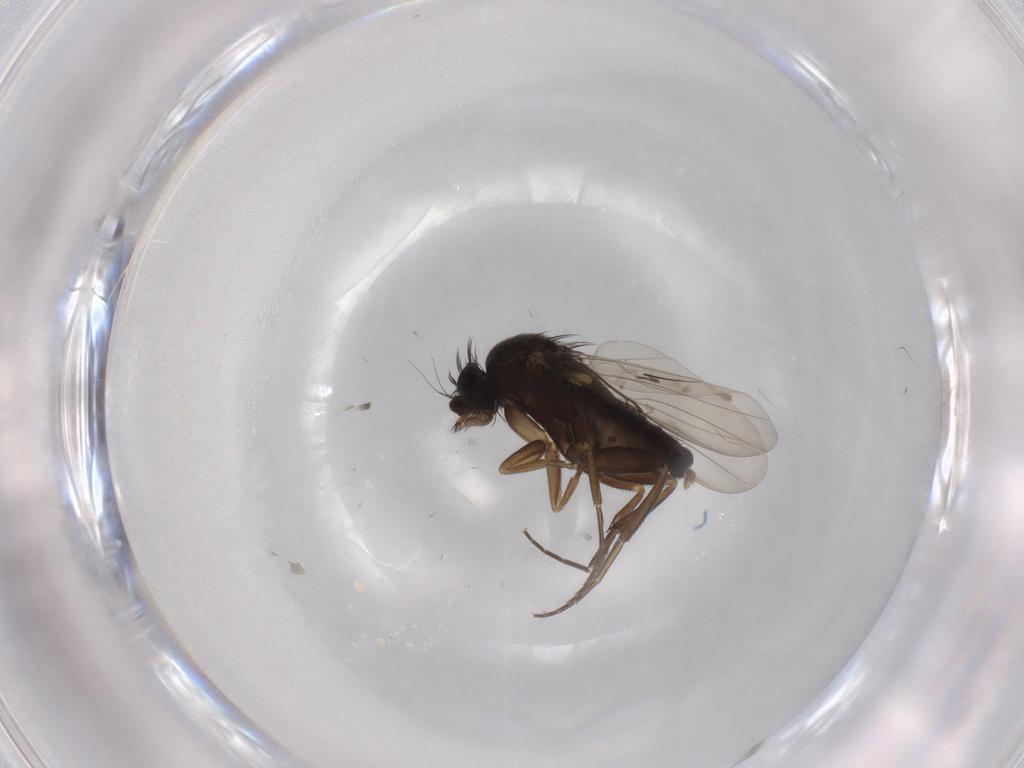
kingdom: Animalia
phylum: Arthropoda
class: Insecta
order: Diptera
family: Phoridae
